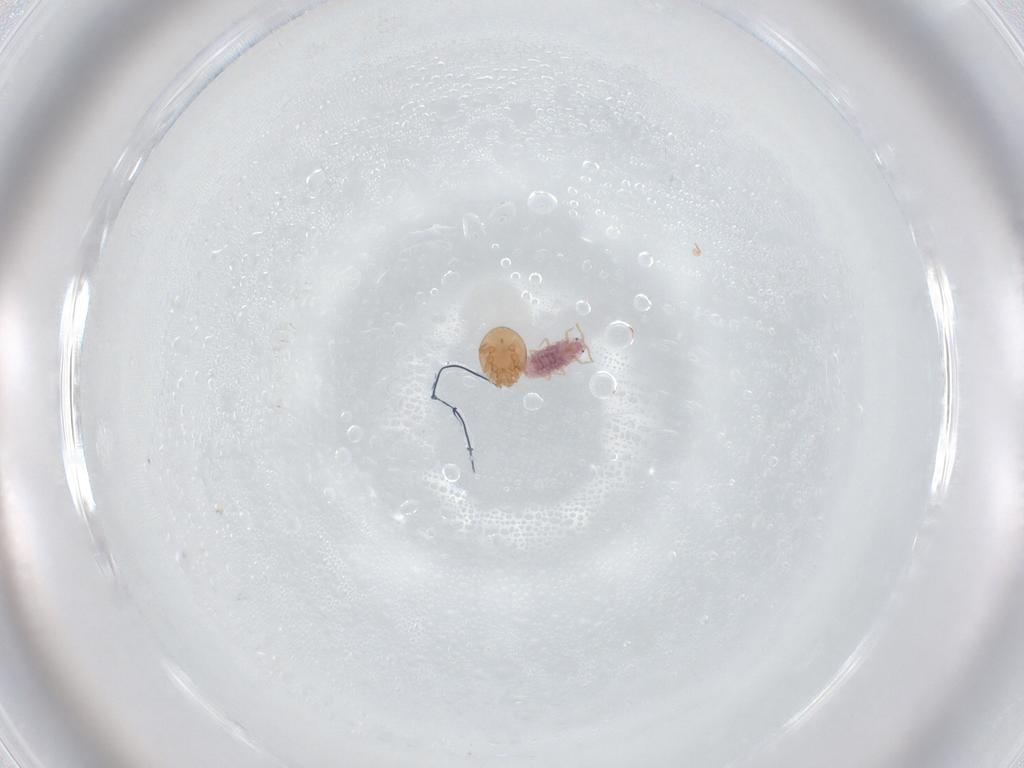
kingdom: Animalia
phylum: Arthropoda
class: Arachnida
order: Mesostigmata
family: Trematuridae
